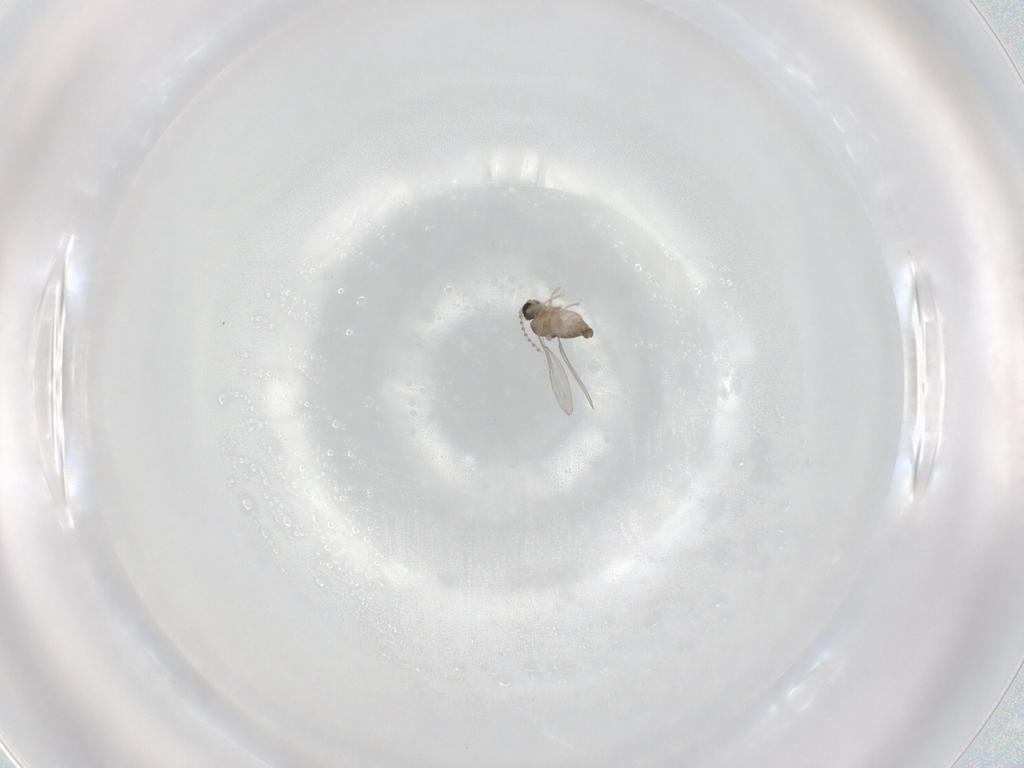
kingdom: Animalia
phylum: Arthropoda
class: Insecta
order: Diptera
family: Cecidomyiidae
